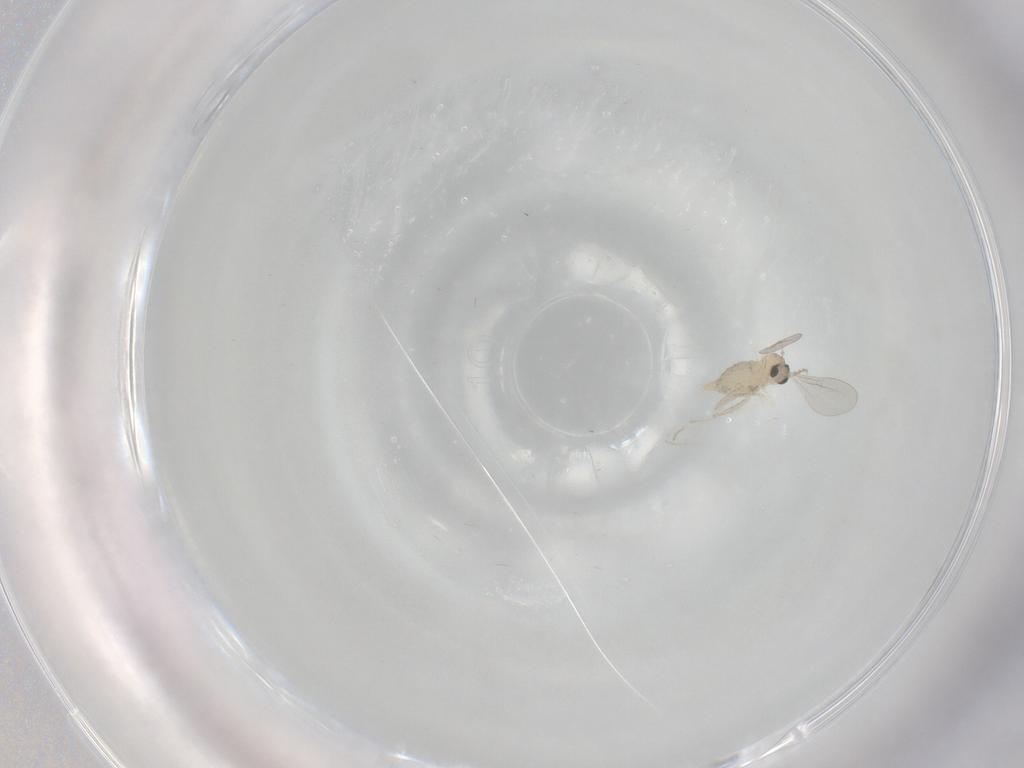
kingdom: Animalia
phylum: Arthropoda
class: Insecta
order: Diptera
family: Cecidomyiidae
